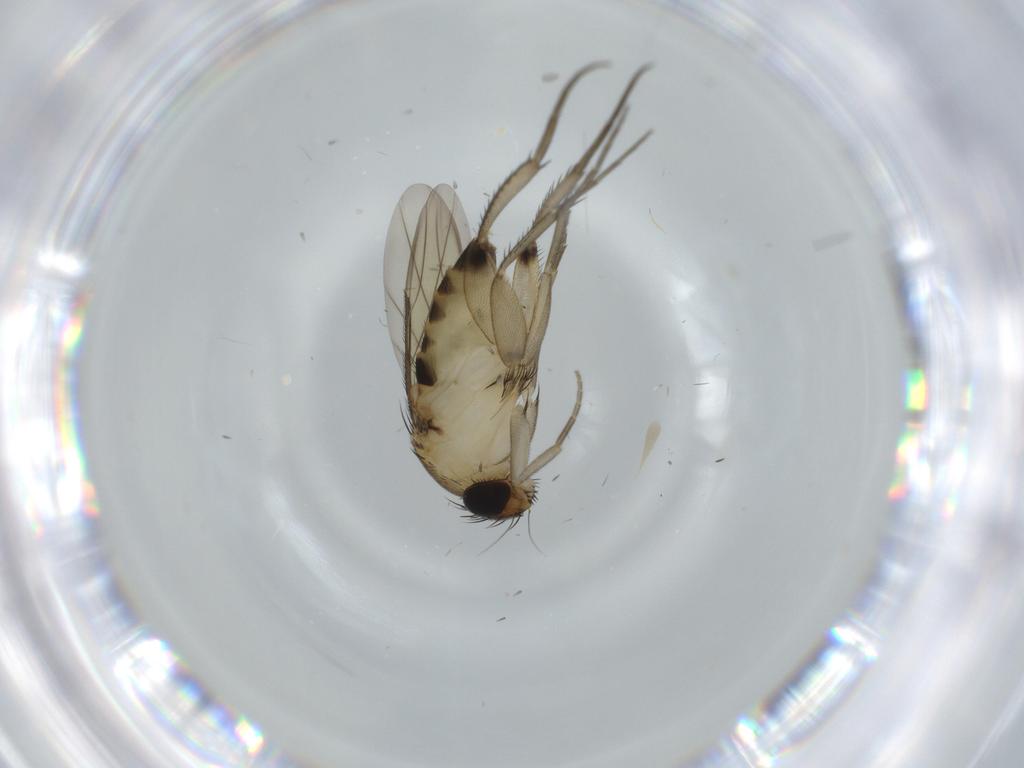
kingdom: Animalia
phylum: Arthropoda
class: Insecta
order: Diptera
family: Phoridae
